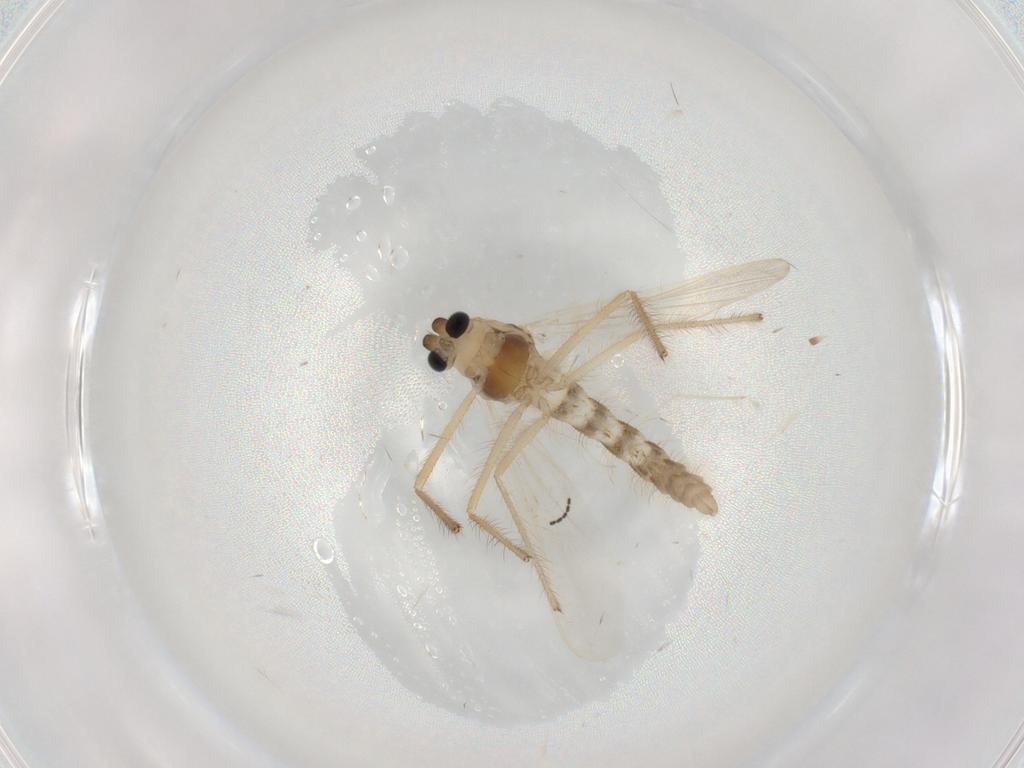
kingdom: Animalia
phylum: Arthropoda
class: Insecta
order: Diptera
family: Chironomidae
